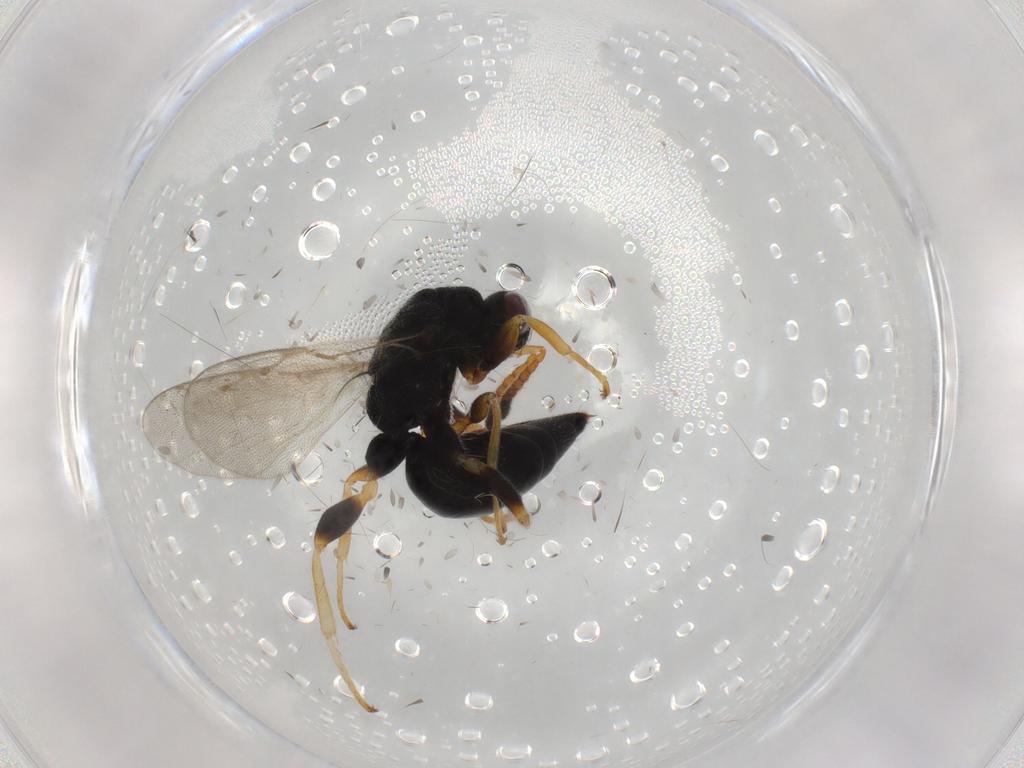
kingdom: Animalia
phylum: Arthropoda
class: Insecta
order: Hymenoptera
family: Eurytomidae
